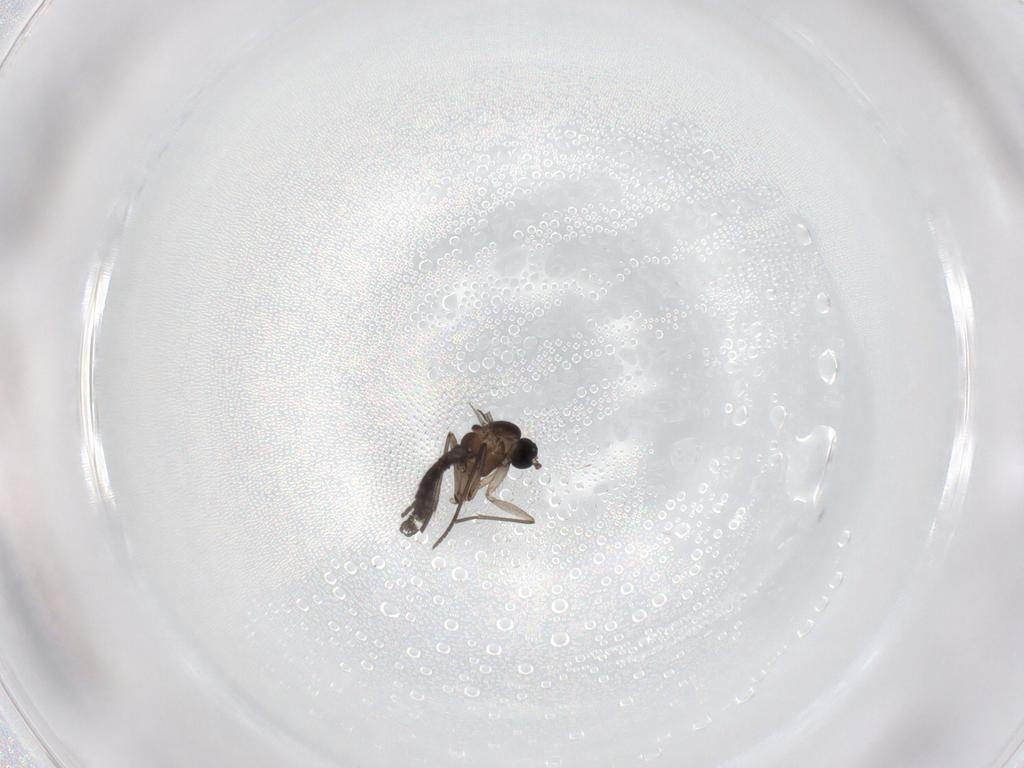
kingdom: Animalia
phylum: Arthropoda
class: Insecta
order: Diptera
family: Ceratopogonidae
